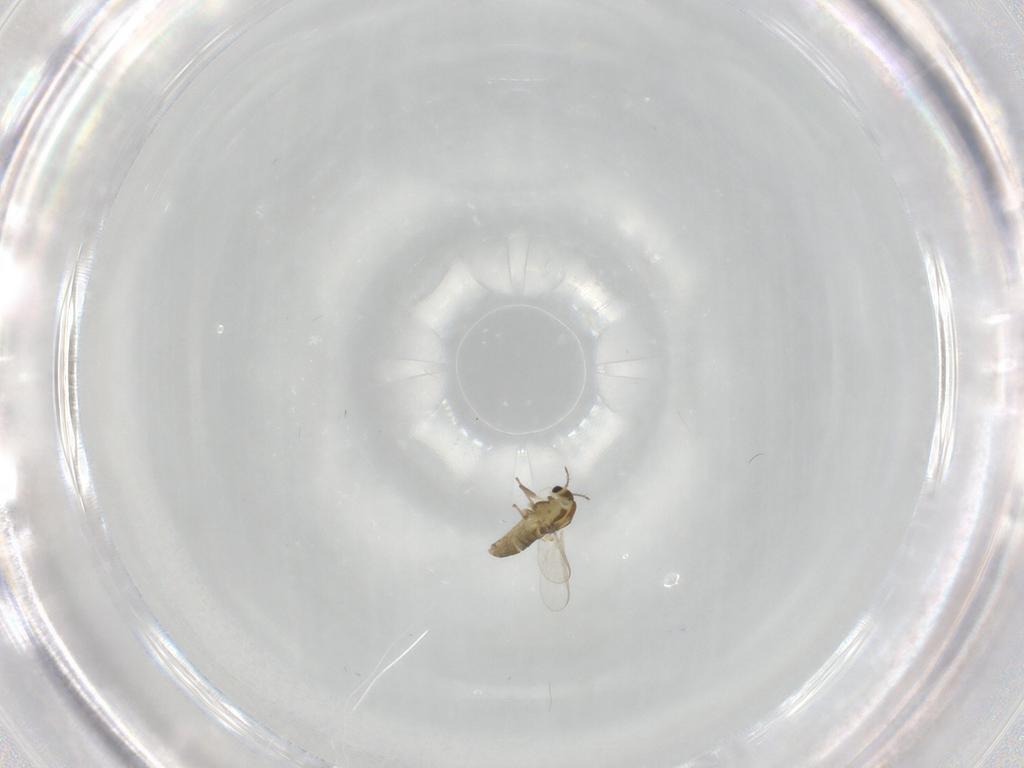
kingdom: Animalia
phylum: Arthropoda
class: Insecta
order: Diptera
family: Chironomidae
